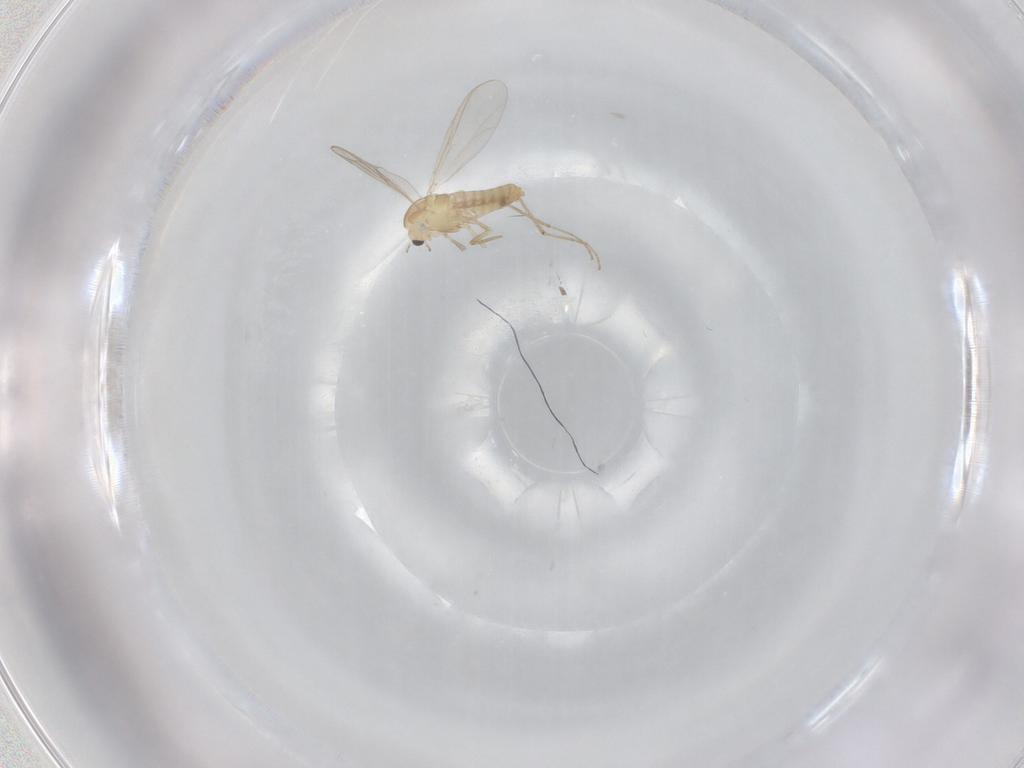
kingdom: Animalia
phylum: Arthropoda
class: Insecta
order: Diptera
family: Chironomidae
